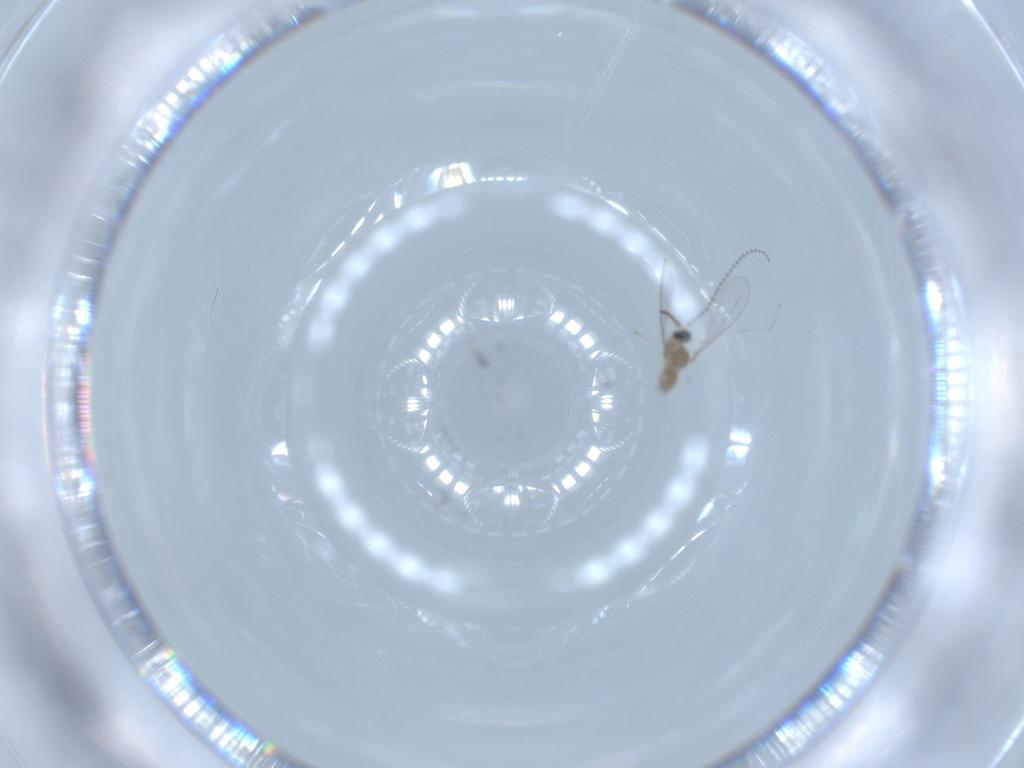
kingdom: Animalia
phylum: Arthropoda
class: Insecta
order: Diptera
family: Cecidomyiidae
